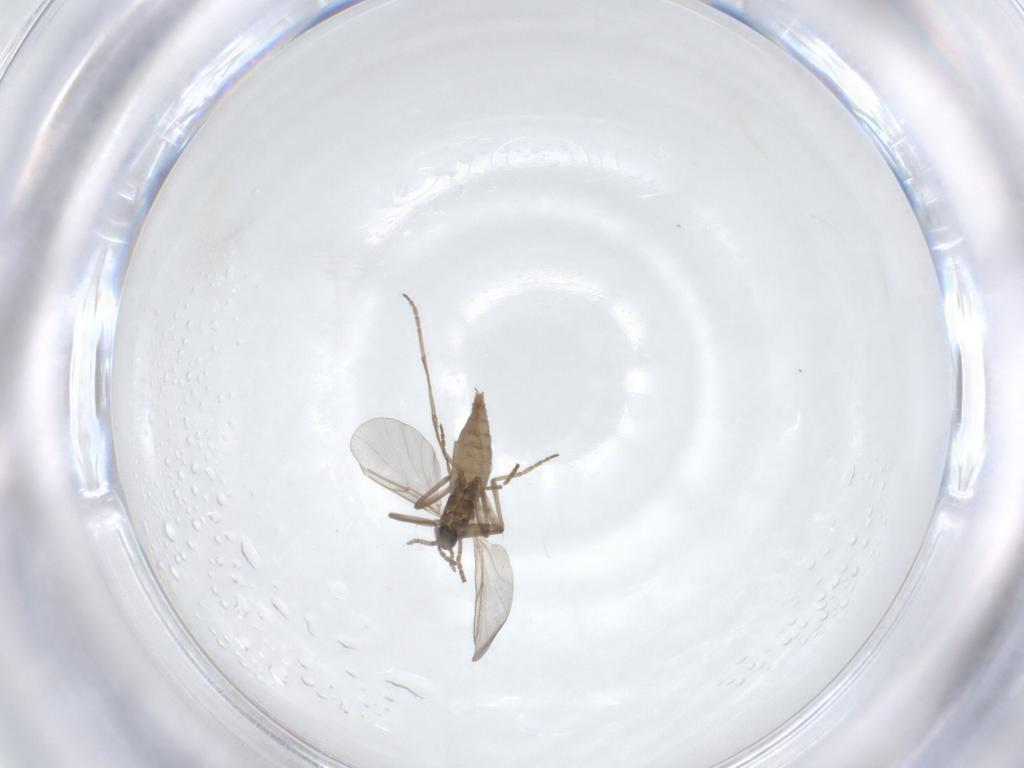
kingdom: Animalia
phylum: Arthropoda
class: Insecta
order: Diptera
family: Cecidomyiidae
